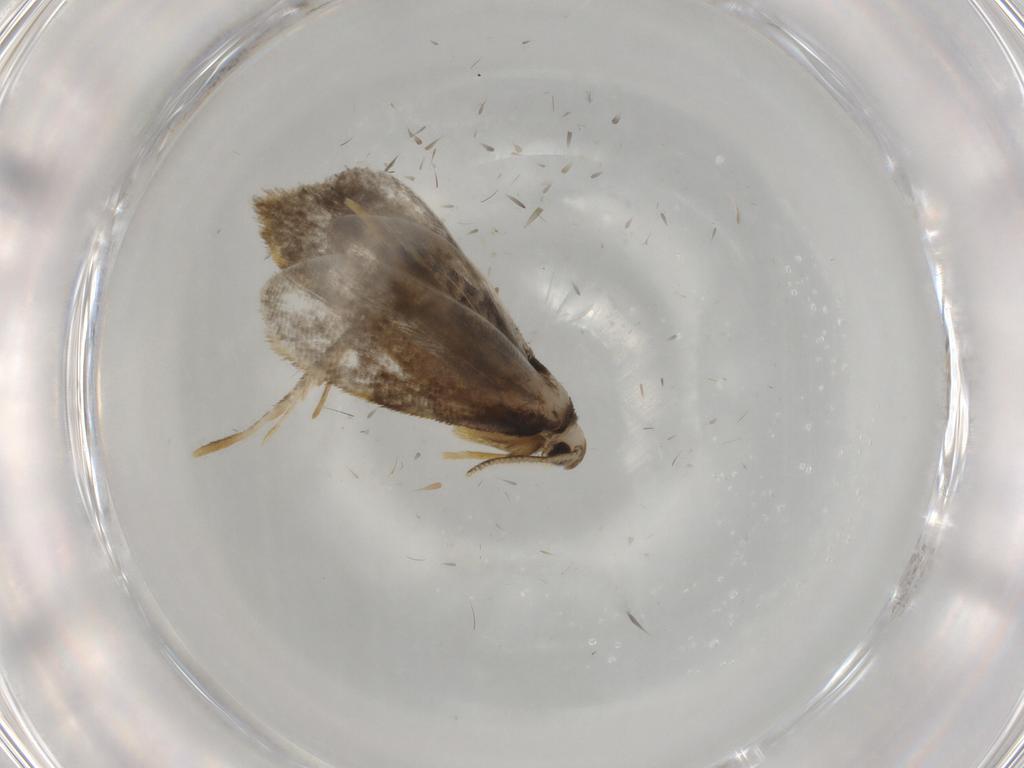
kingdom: Animalia
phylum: Arthropoda
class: Insecta
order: Lepidoptera
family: Psychidae
